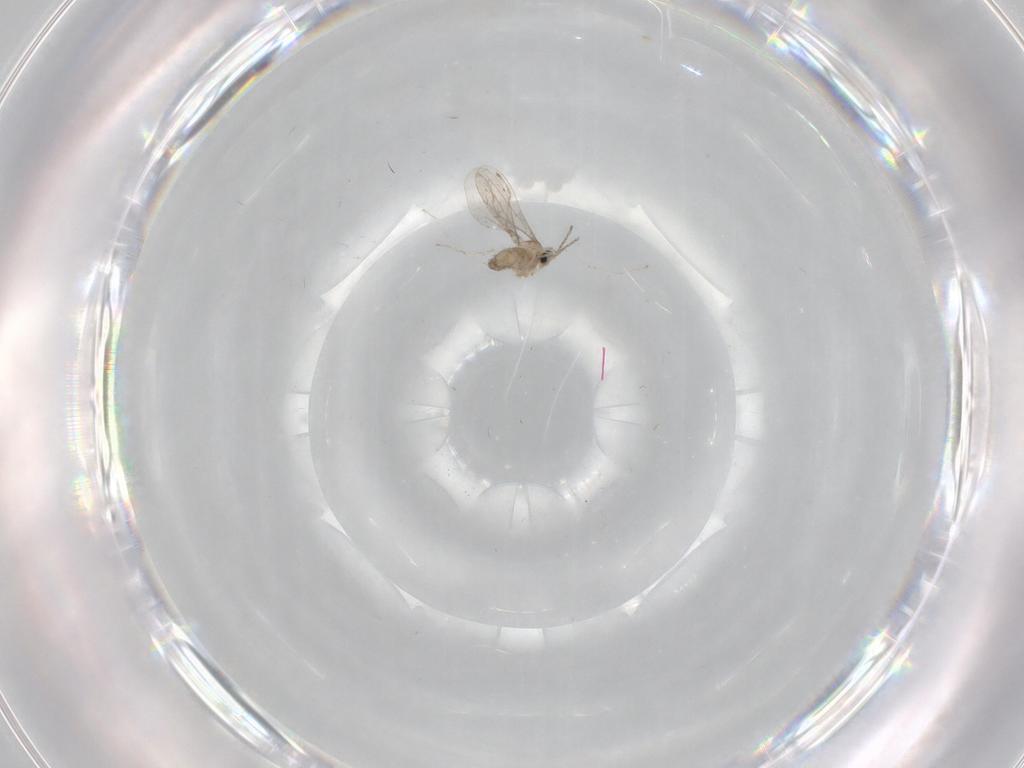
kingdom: Animalia
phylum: Arthropoda
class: Insecta
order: Diptera
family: Cecidomyiidae
